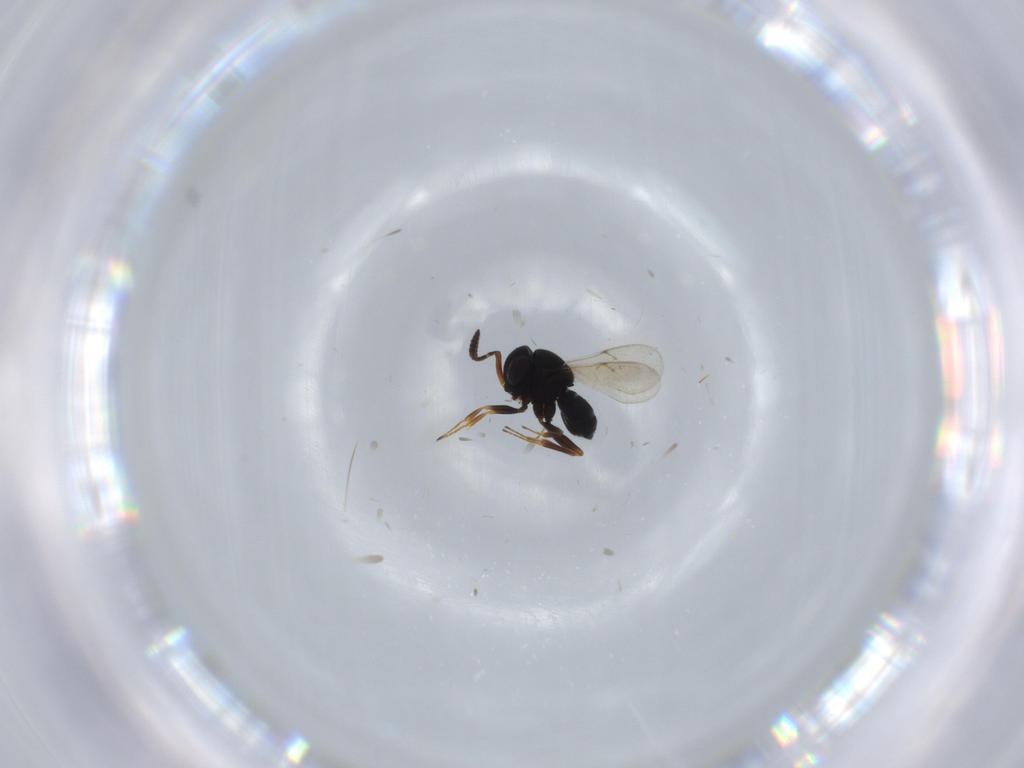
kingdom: Animalia
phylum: Arthropoda
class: Insecta
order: Hymenoptera
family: Scelionidae
